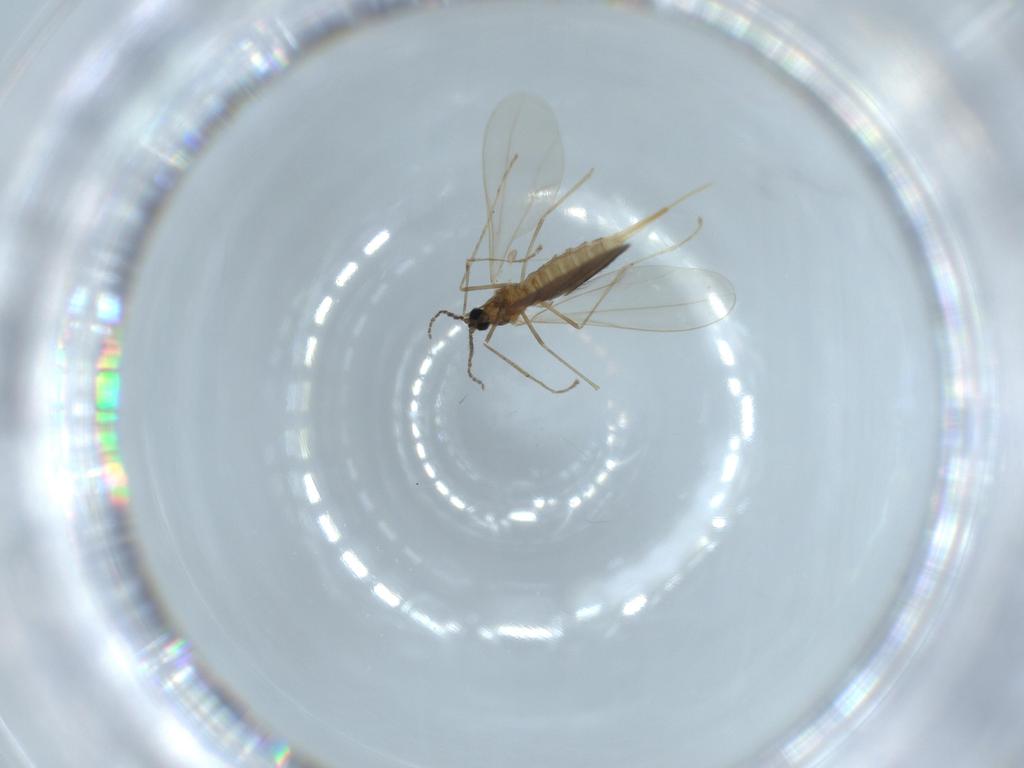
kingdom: Animalia
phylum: Arthropoda
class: Insecta
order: Diptera
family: Cecidomyiidae
